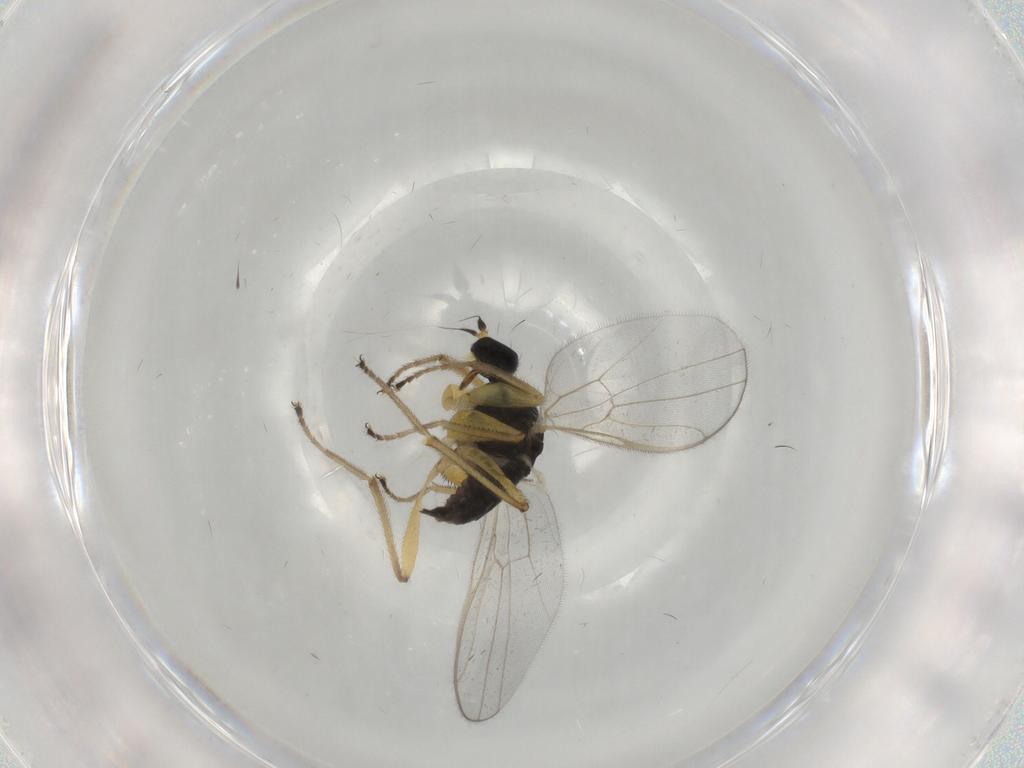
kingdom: Animalia
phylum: Arthropoda
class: Insecta
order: Diptera
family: Hybotidae
